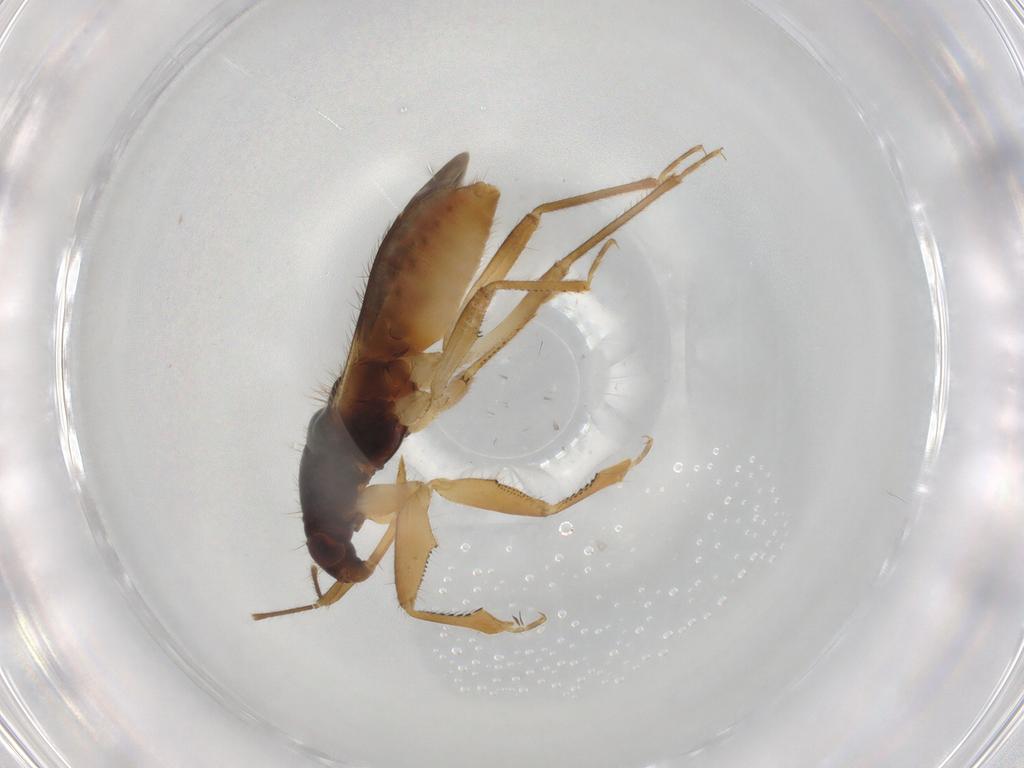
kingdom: Animalia
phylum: Arthropoda
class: Insecta
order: Hemiptera
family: Nabidae
